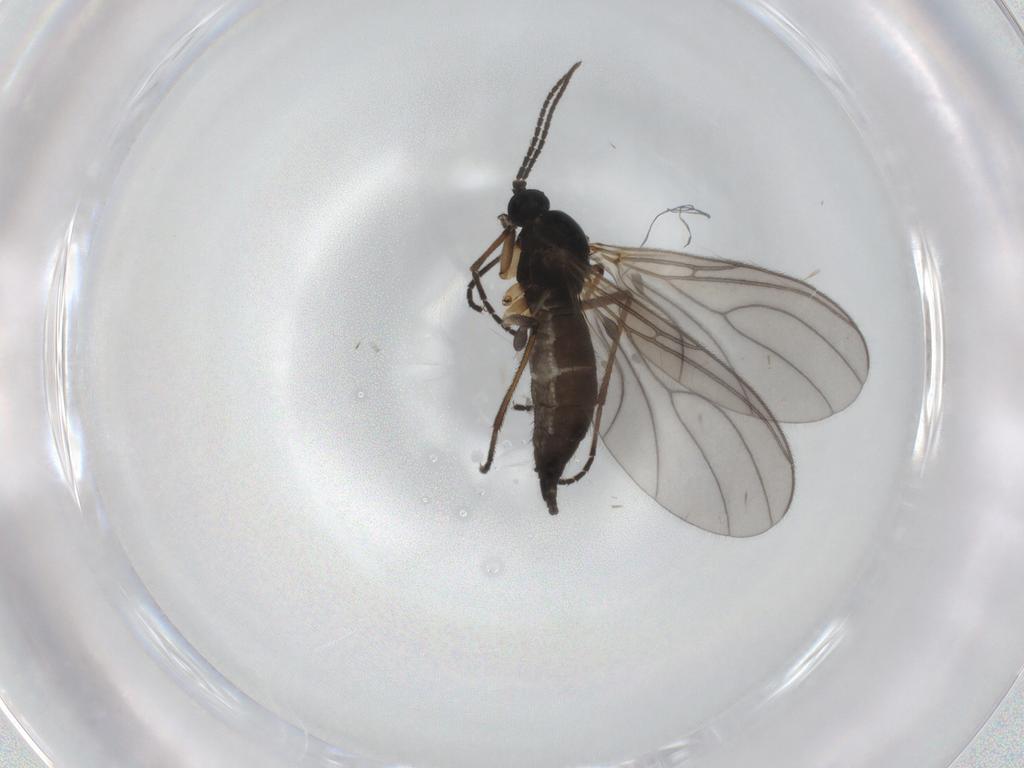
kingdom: Animalia
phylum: Arthropoda
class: Insecta
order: Diptera
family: Sciaridae
